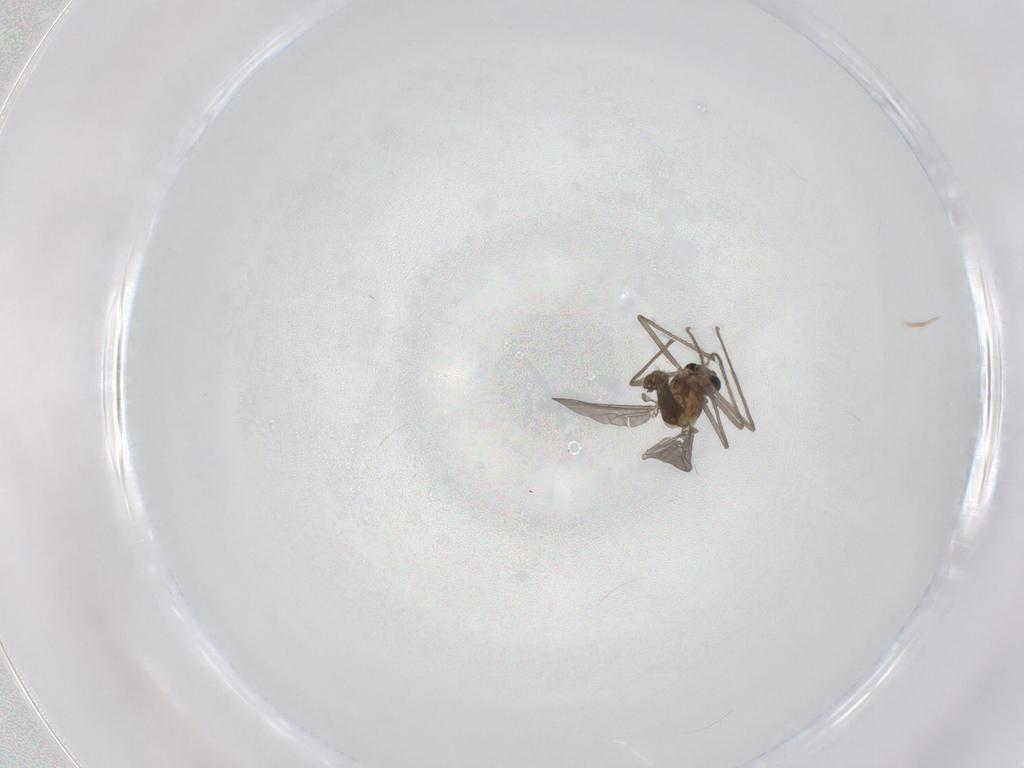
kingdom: Animalia
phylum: Arthropoda
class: Insecta
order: Diptera
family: Chironomidae
